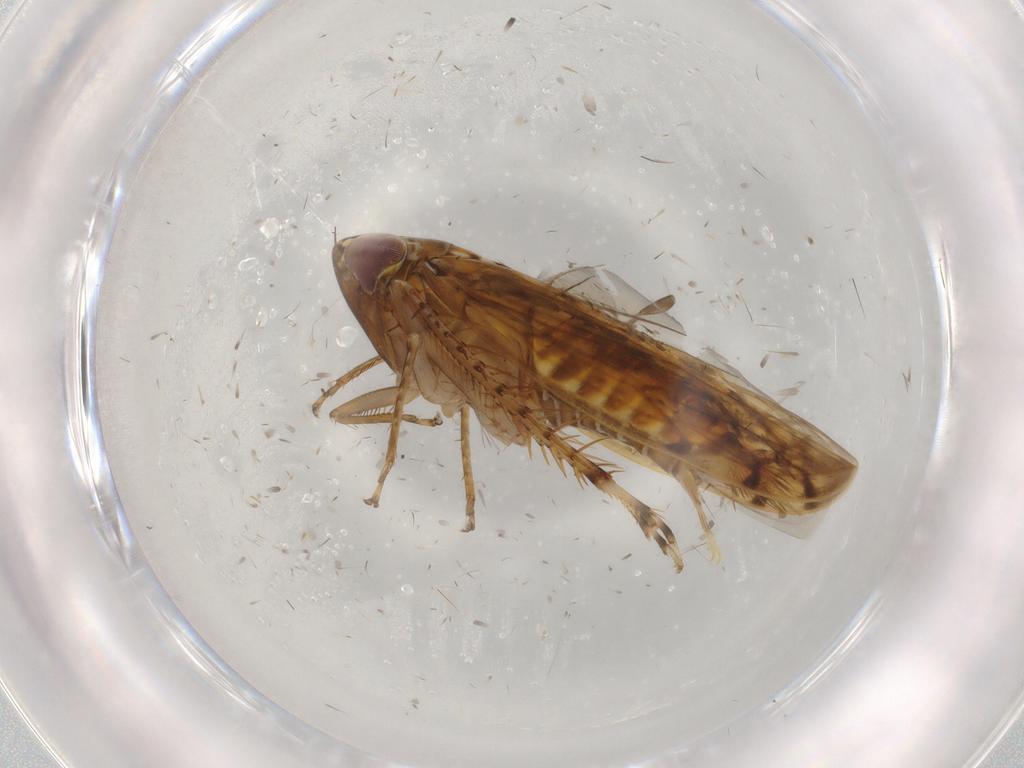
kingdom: Animalia
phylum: Arthropoda
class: Insecta
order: Hemiptera
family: Cicadellidae
